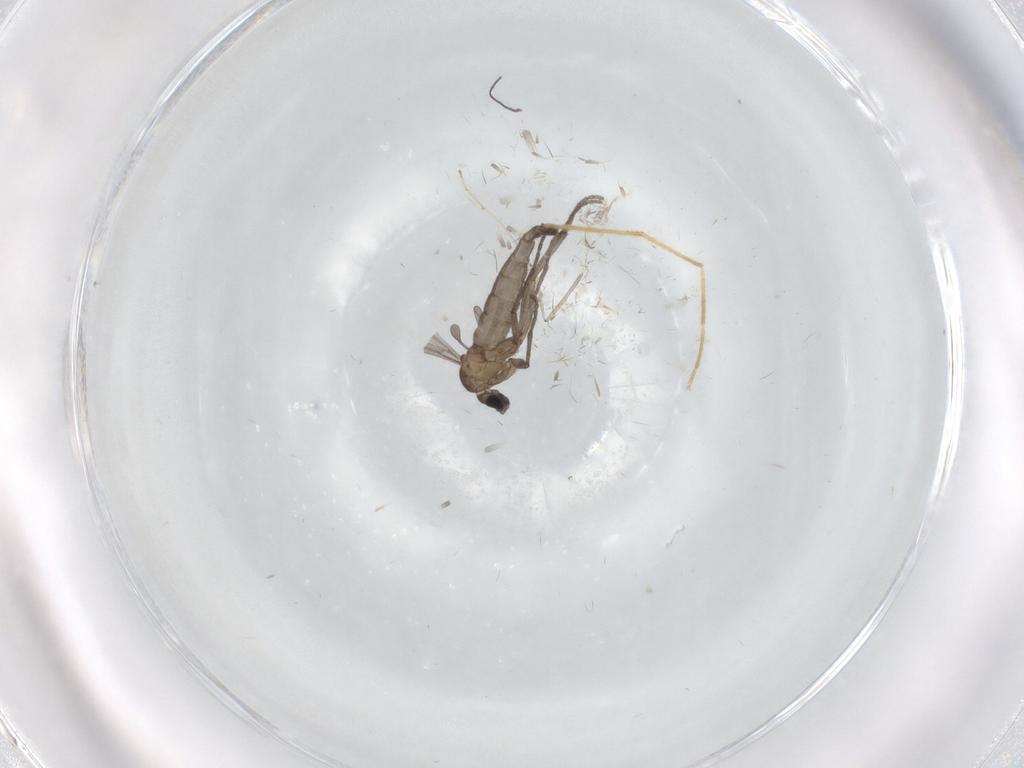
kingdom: Animalia
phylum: Arthropoda
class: Insecta
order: Diptera
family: Sciaridae
